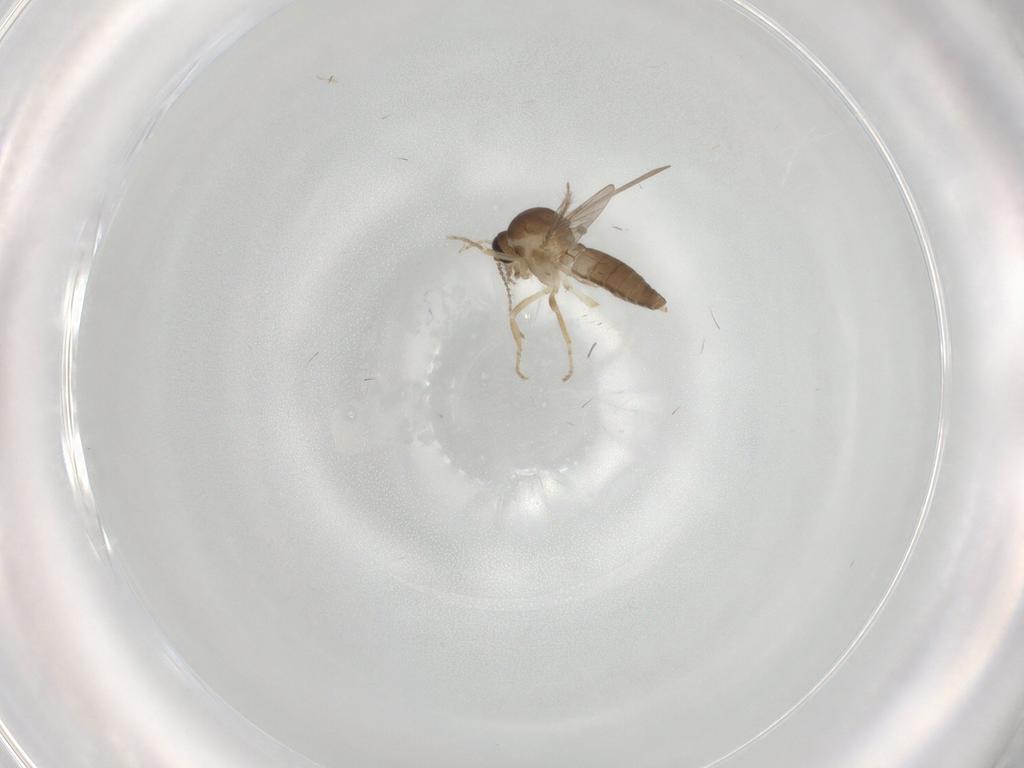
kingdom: Animalia
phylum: Arthropoda
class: Insecta
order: Diptera
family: Ceratopogonidae
